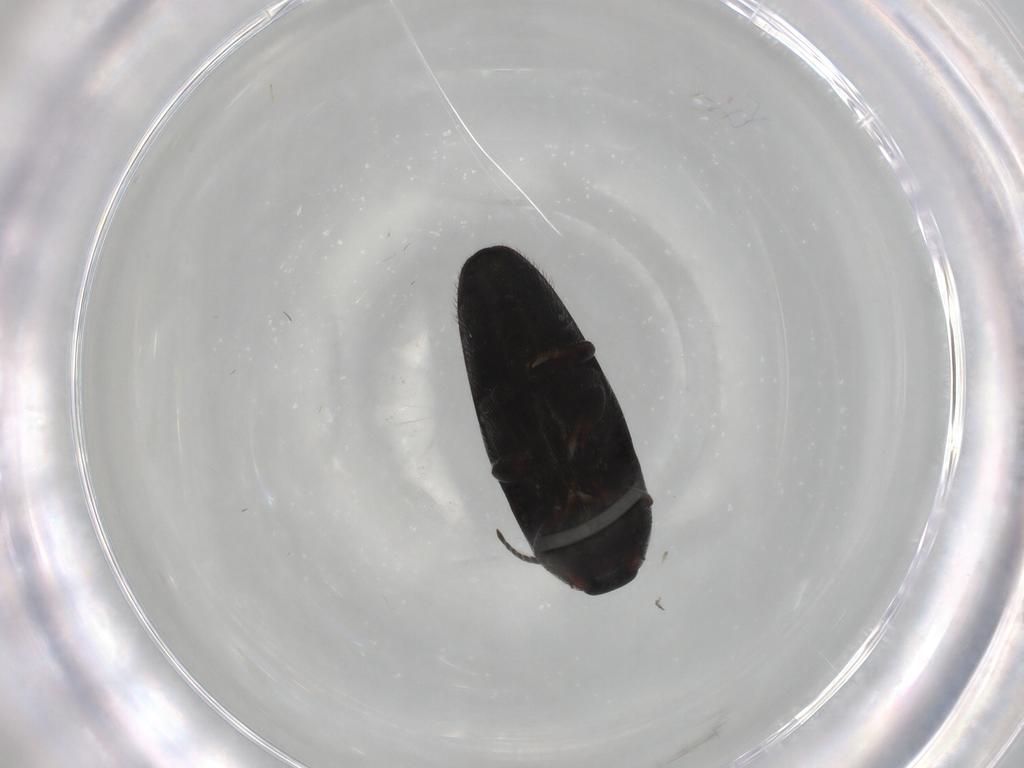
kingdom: Animalia
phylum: Arthropoda
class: Insecta
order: Coleoptera
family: Elateridae
